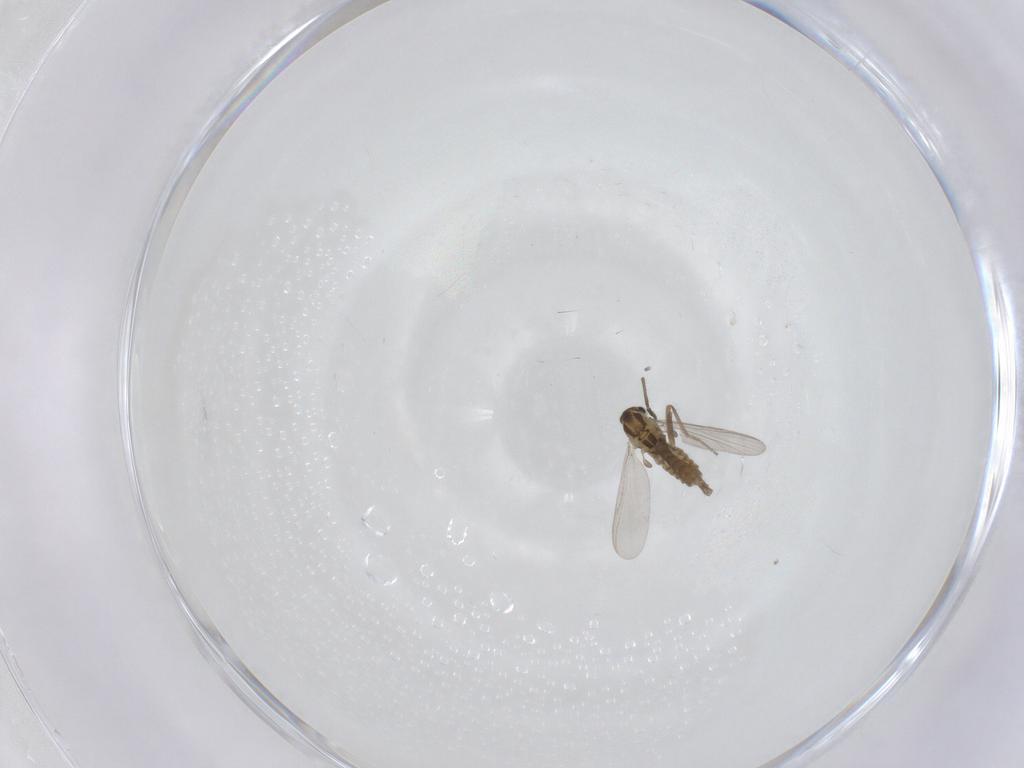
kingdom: Animalia
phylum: Arthropoda
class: Insecta
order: Diptera
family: Chironomidae
